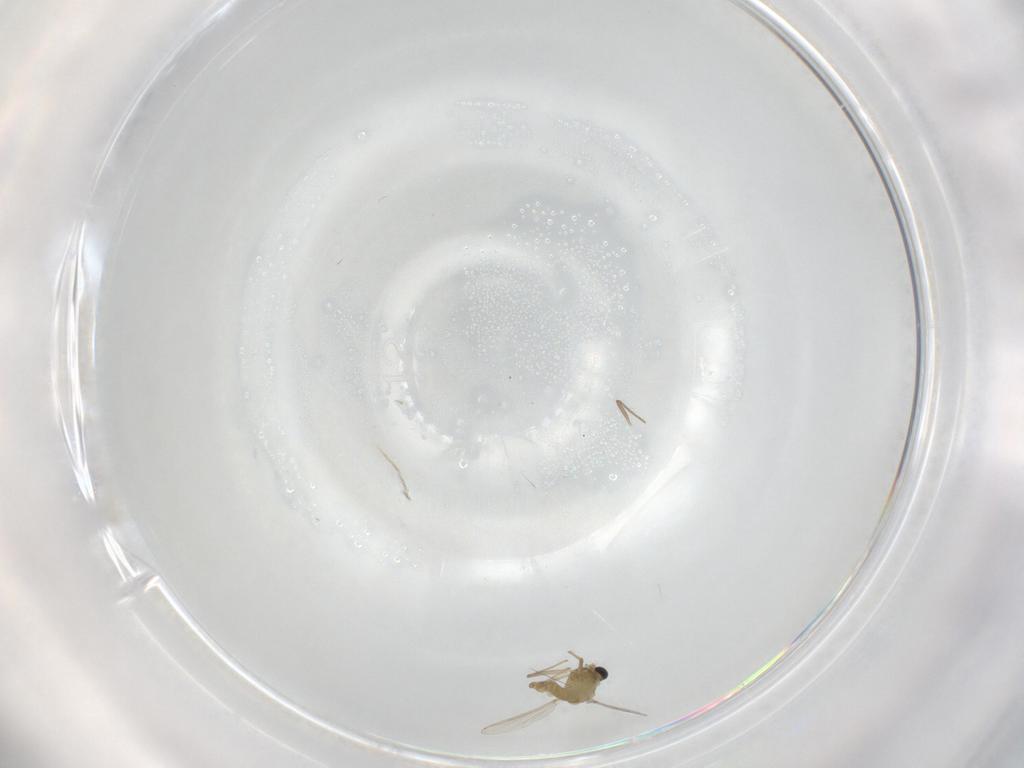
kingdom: Animalia
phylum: Arthropoda
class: Insecta
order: Diptera
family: Chironomidae
